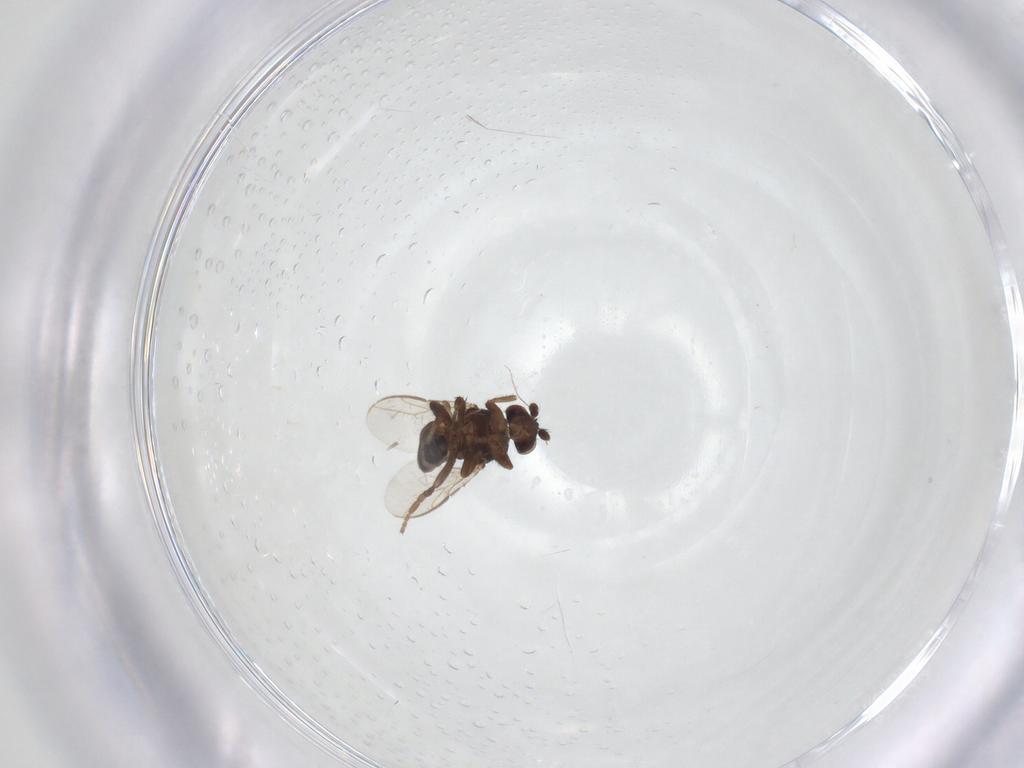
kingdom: Animalia
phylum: Arthropoda
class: Insecta
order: Diptera
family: Sphaeroceridae
